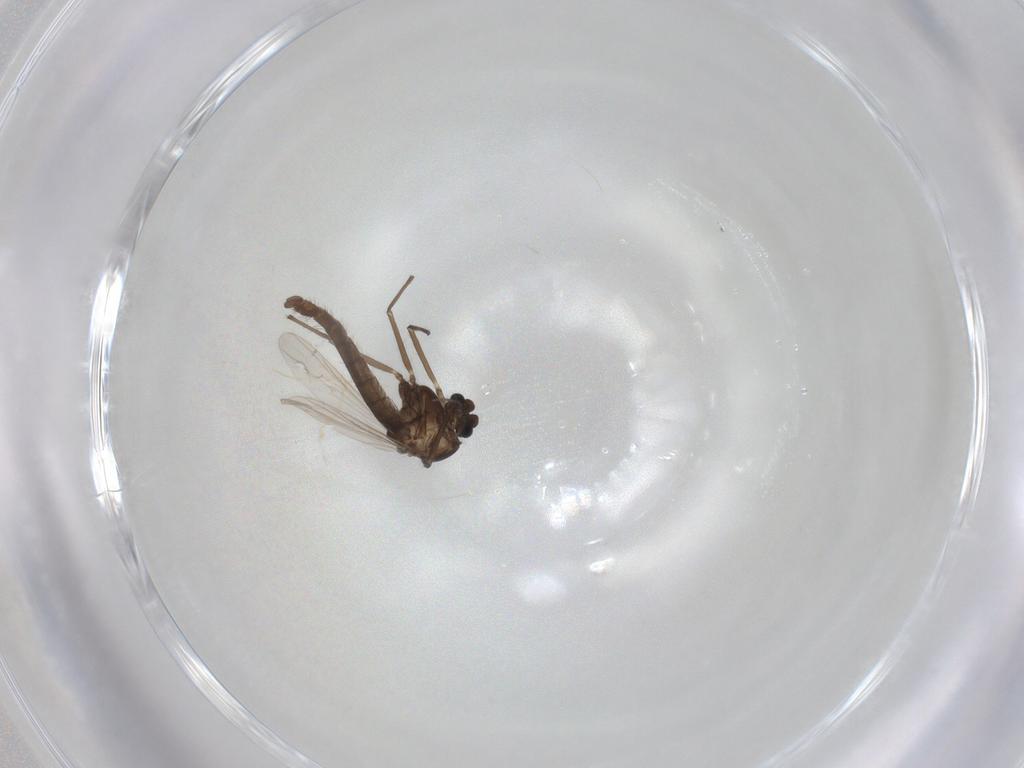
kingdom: Animalia
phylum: Arthropoda
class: Insecta
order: Diptera
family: Chironomidae
